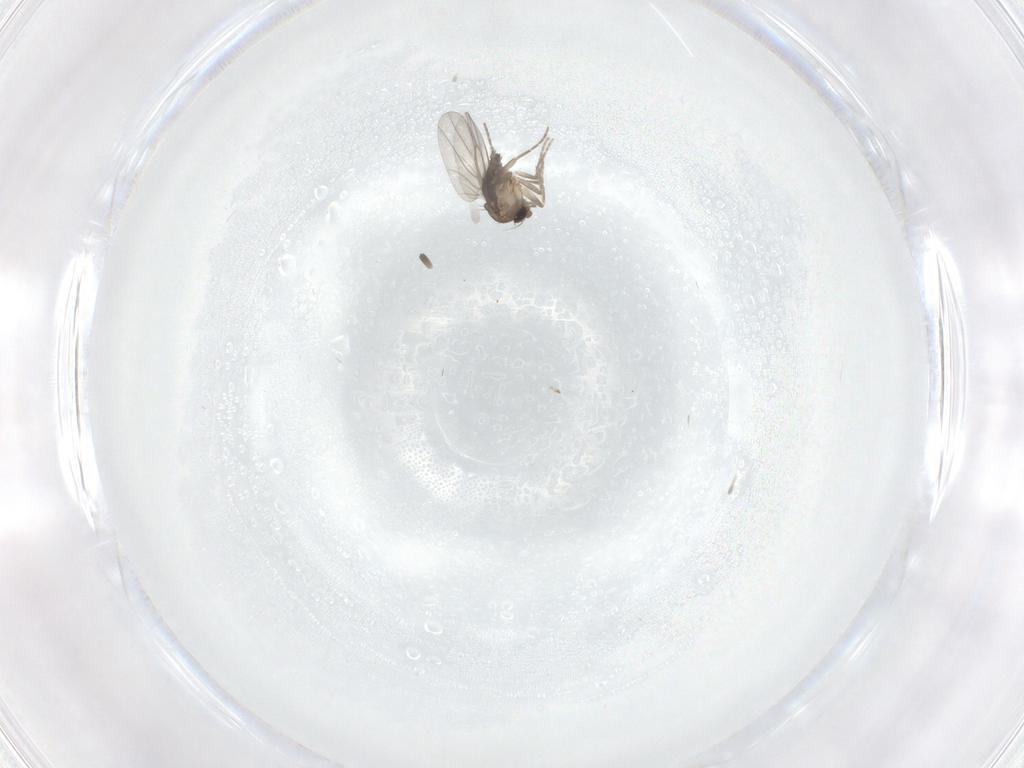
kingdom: Animalia
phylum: Arthropoda
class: Insecta
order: Diptera
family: Phoridae
